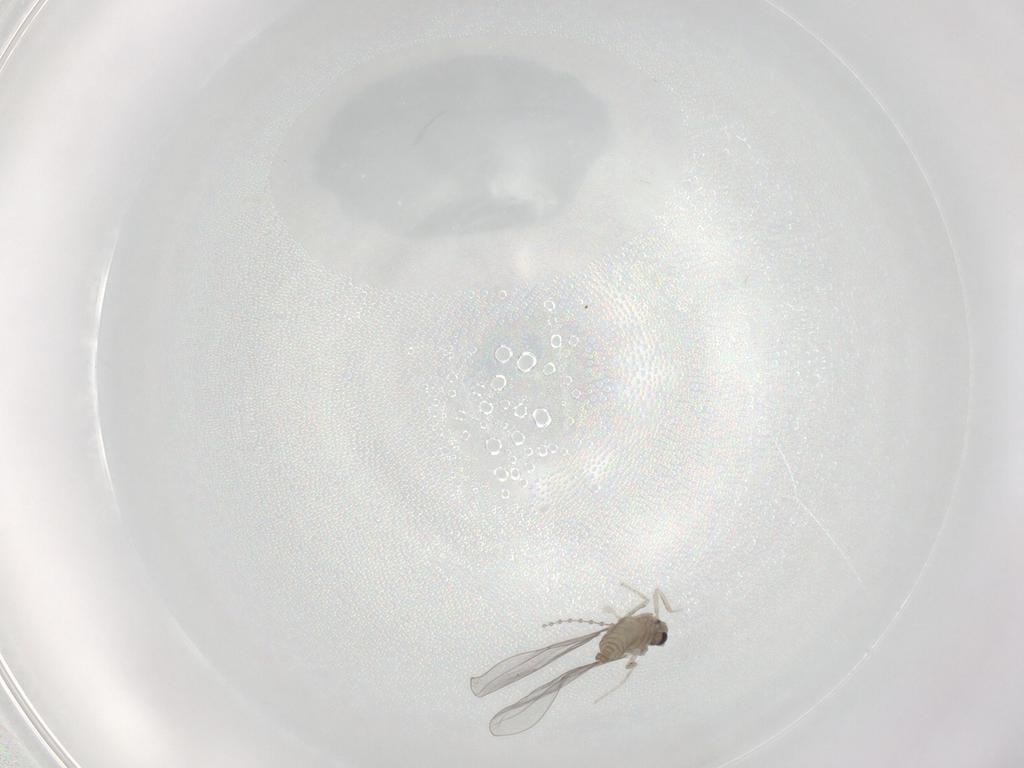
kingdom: Animalia
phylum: Arthropoda
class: Insecta
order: Diptera
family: Cecidomyiidae
